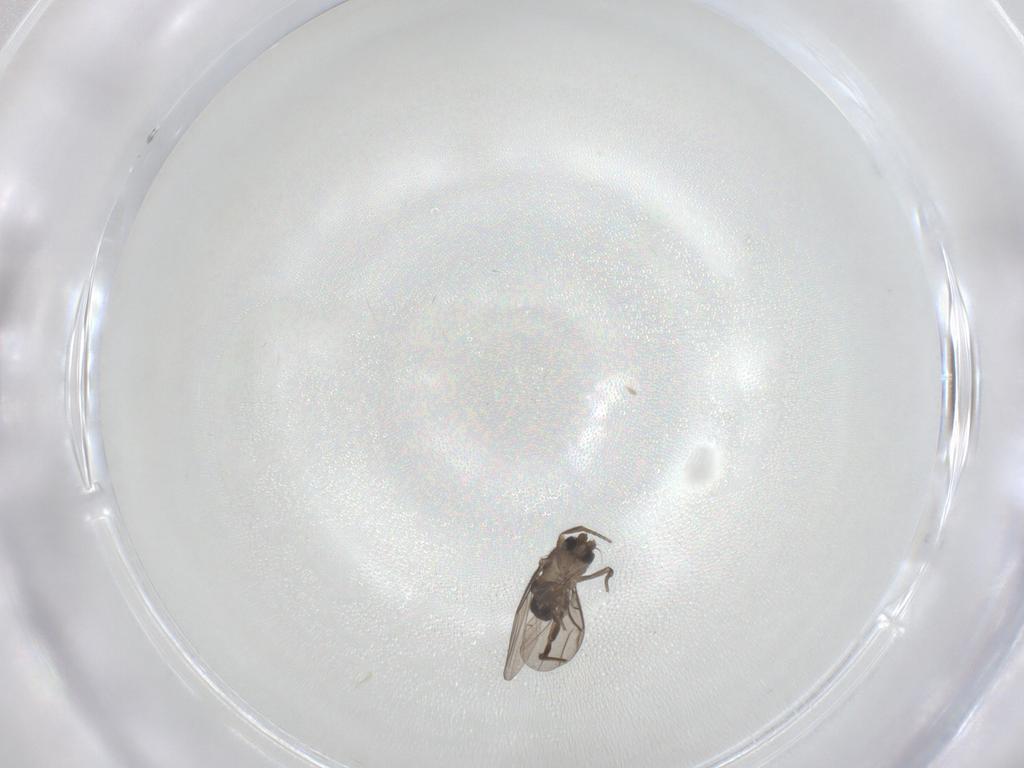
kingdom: Animalia
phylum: Arthropoda
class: Insecta
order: Diptera
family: Phoridae
